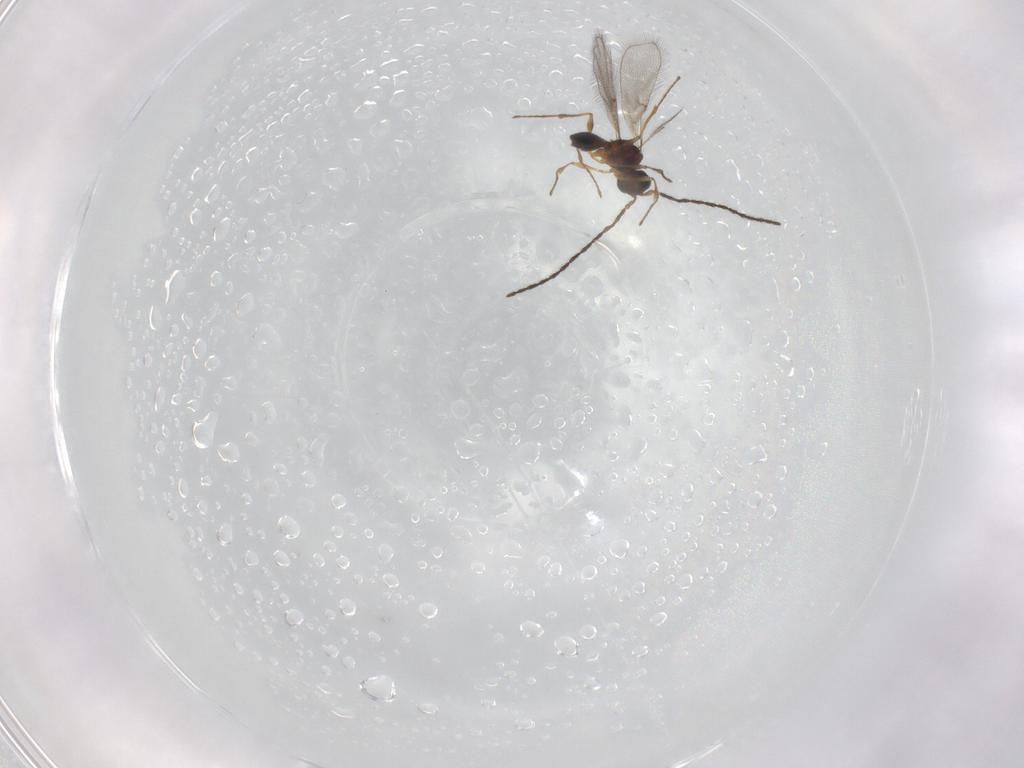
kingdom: Animalia
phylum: Arthropoda
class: Insecta
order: Hymenoptera
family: Diapriidae
